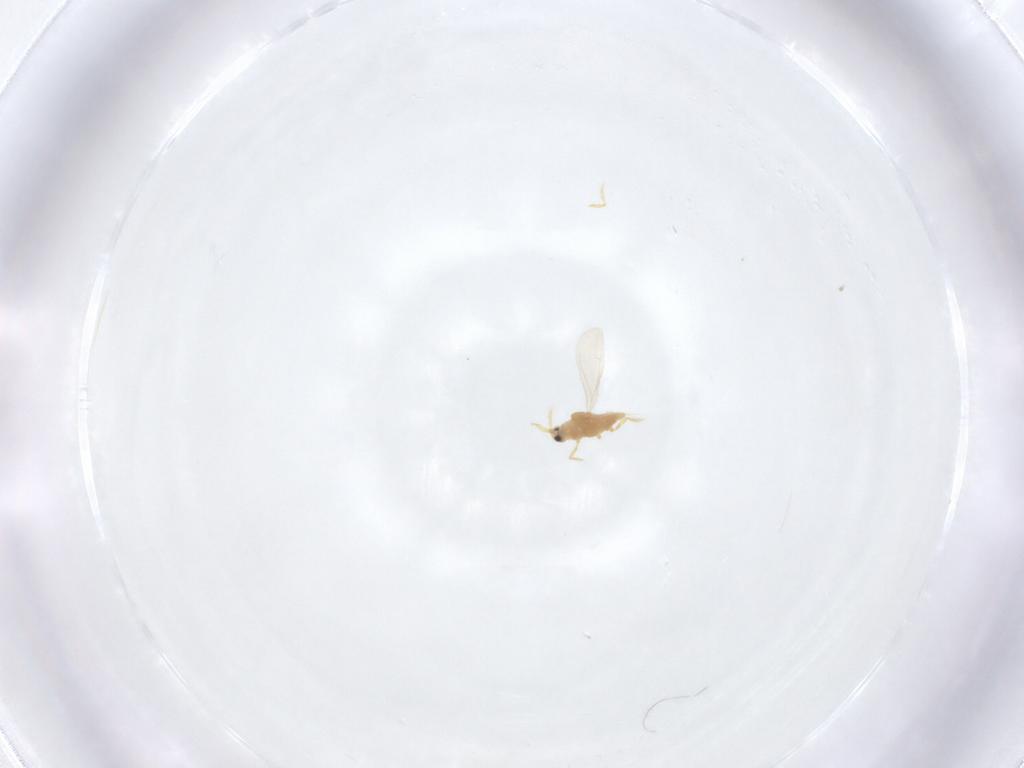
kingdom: Animalia
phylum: Arthropoda
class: Insecta
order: Hemiptera
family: Diaspididae
